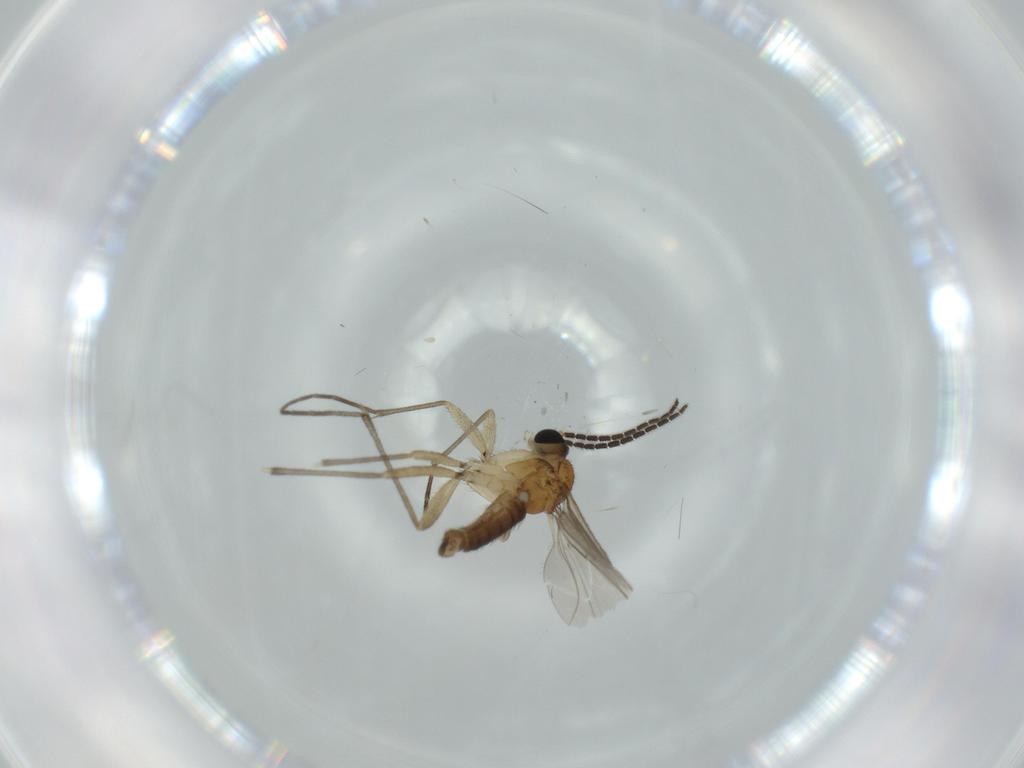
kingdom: Animalia
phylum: Arthropoda
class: Insecta
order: Diptera
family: Sciaridae
